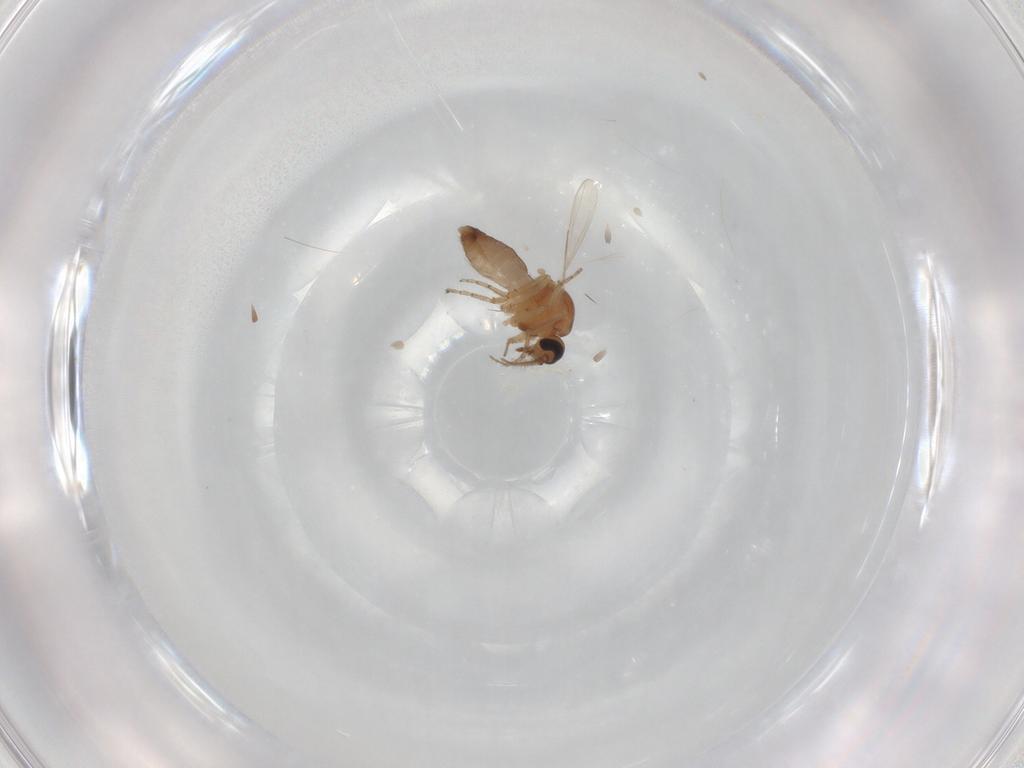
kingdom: Animalia
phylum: Arthropoda
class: Insecta
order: Diptera
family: Ceratopogonidae
